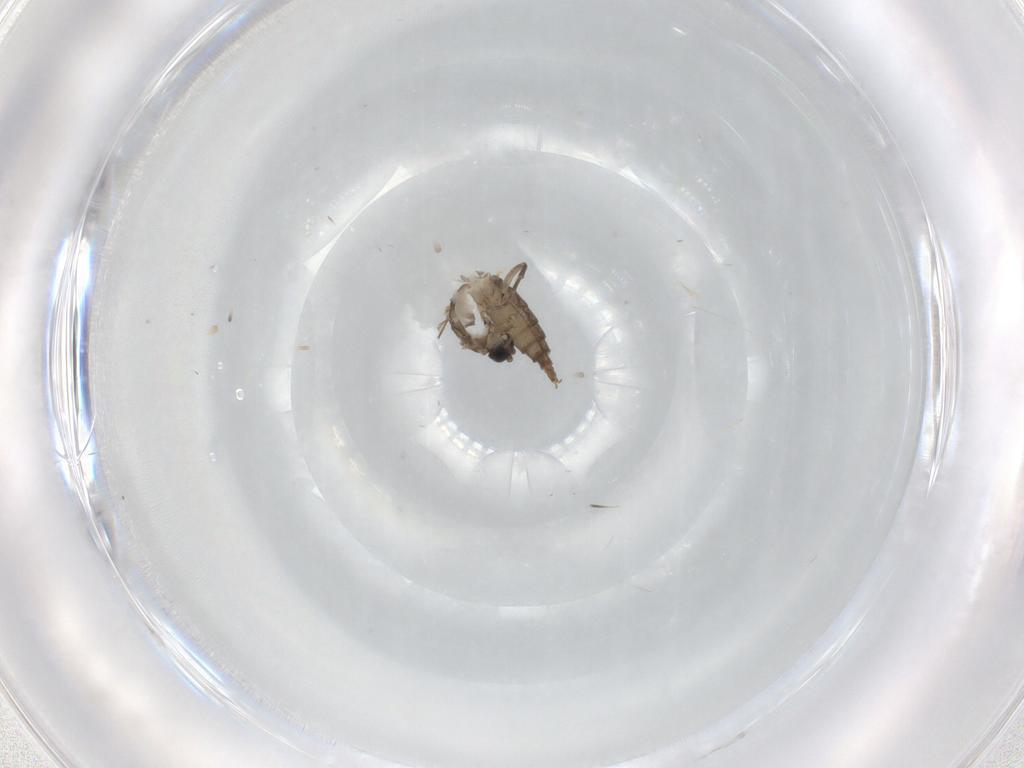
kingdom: Animalia
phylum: Arthropoda
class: Insecta
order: Diptera
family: Sciaridae
